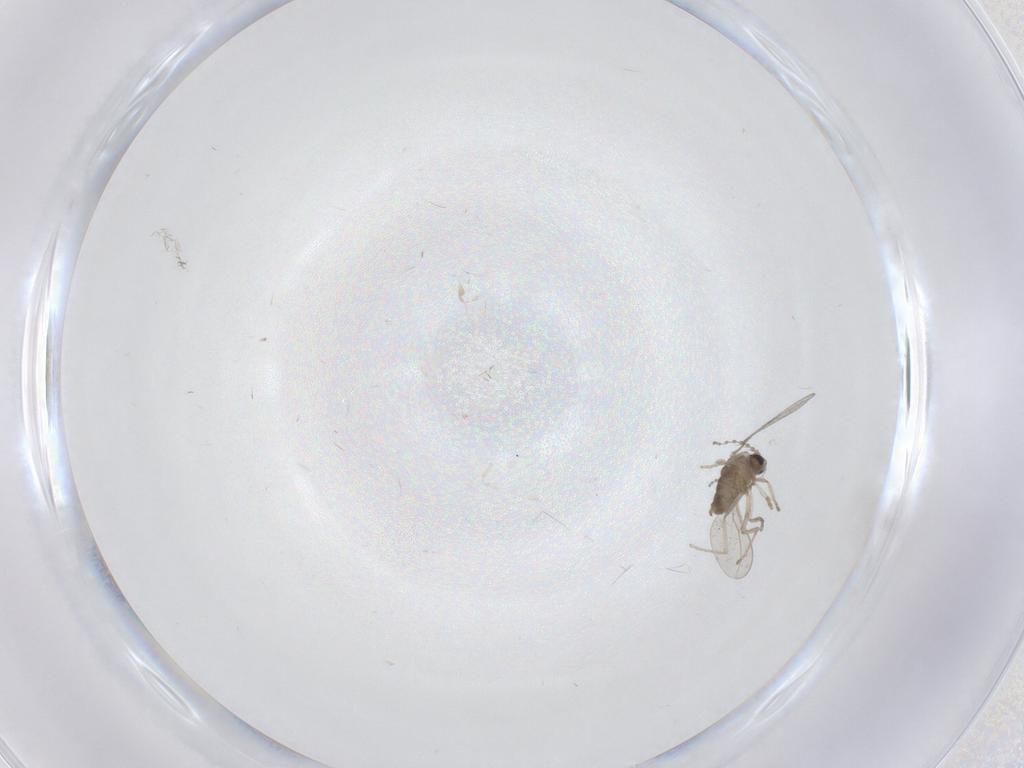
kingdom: Animalia
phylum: Arthropoda
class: Insecta
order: Diptera
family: Cecidomyiidae
